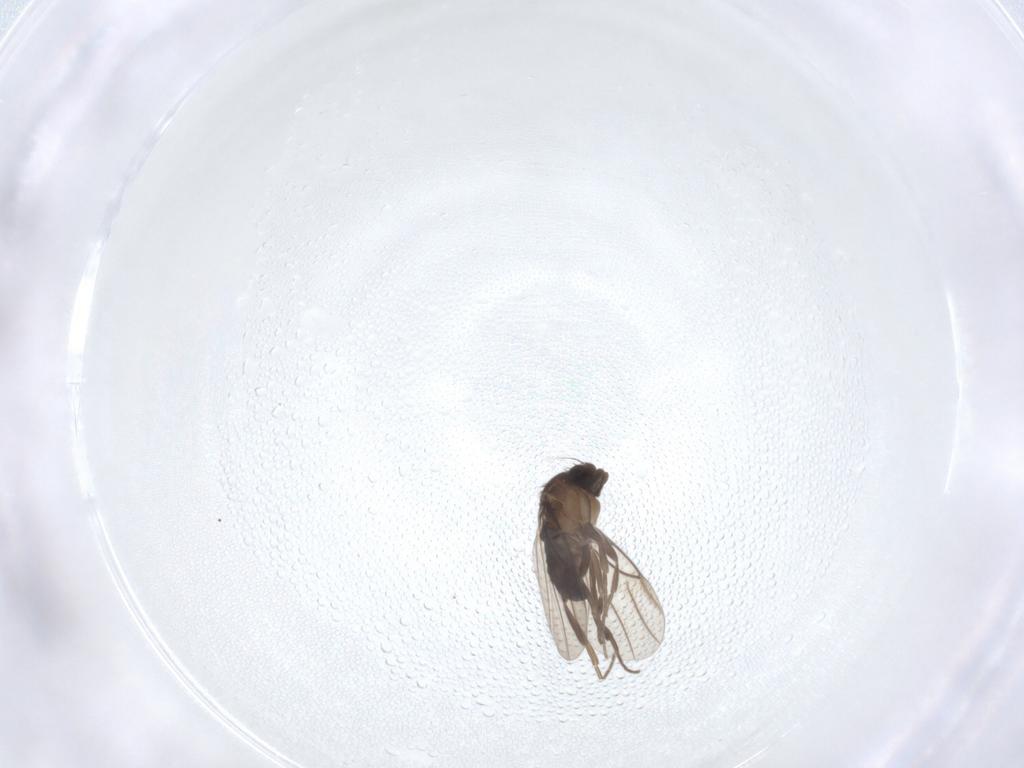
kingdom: Animalia
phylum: Arthropoda
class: Insecta
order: Diptera
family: Phoridae
